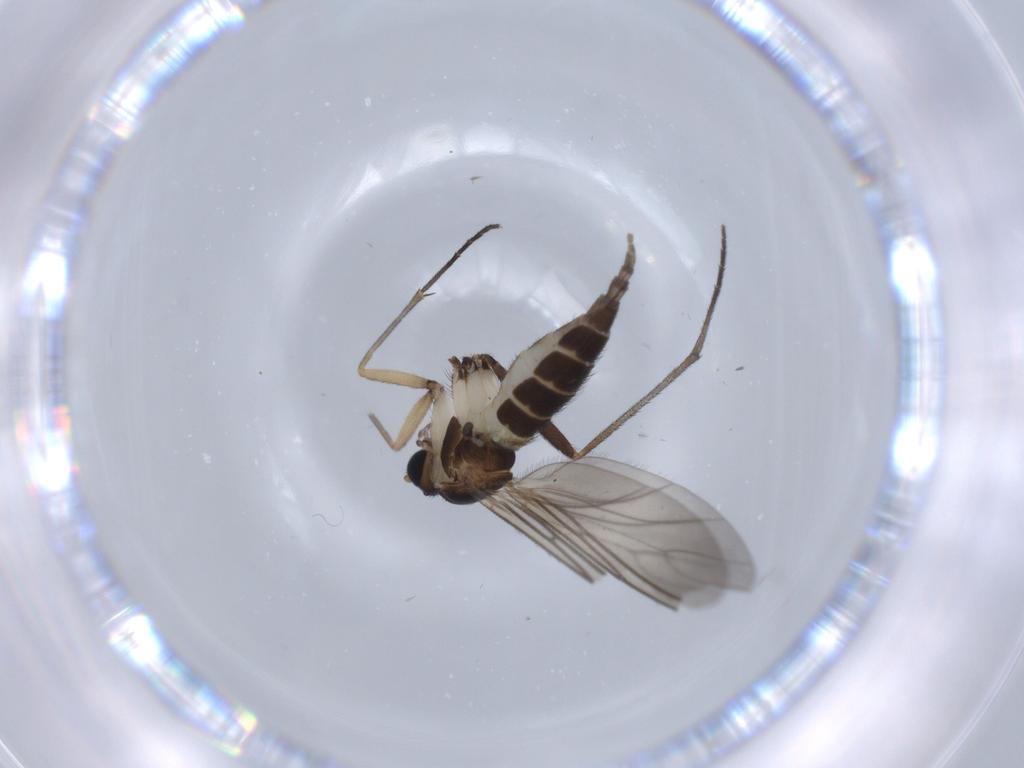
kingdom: Animalia
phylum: Arthropoda
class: Insecta
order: Diptera
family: Sciaridae
